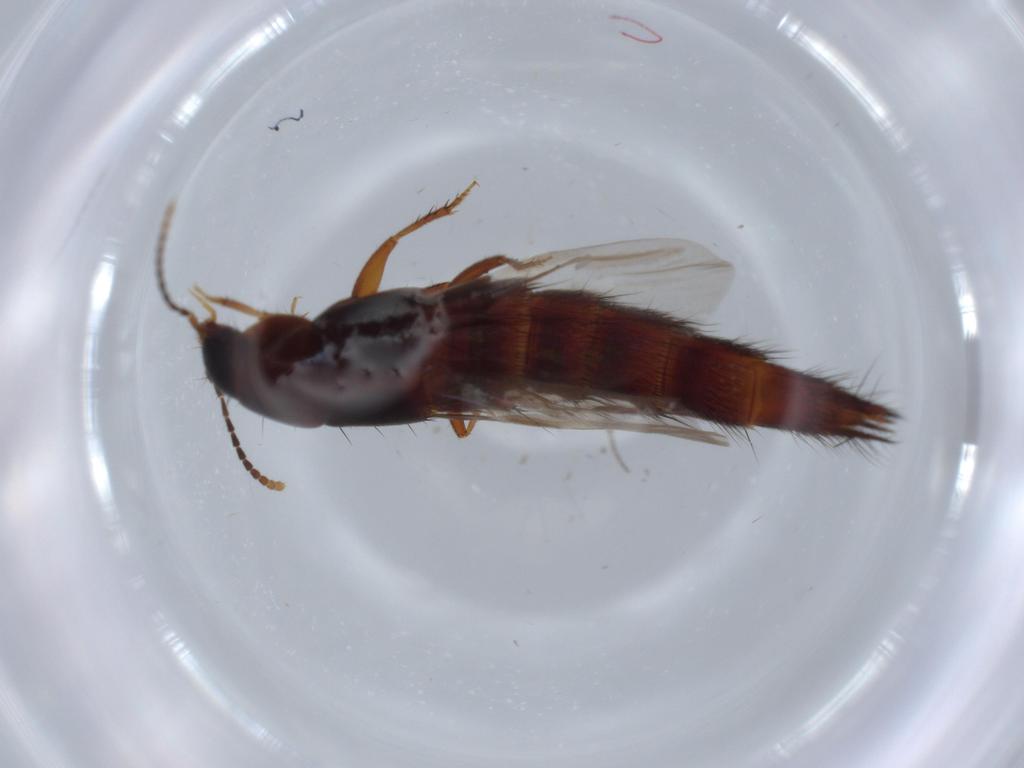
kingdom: Animalia
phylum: Arthropoda
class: Insecta
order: Coleoptera
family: Staphylinidae
